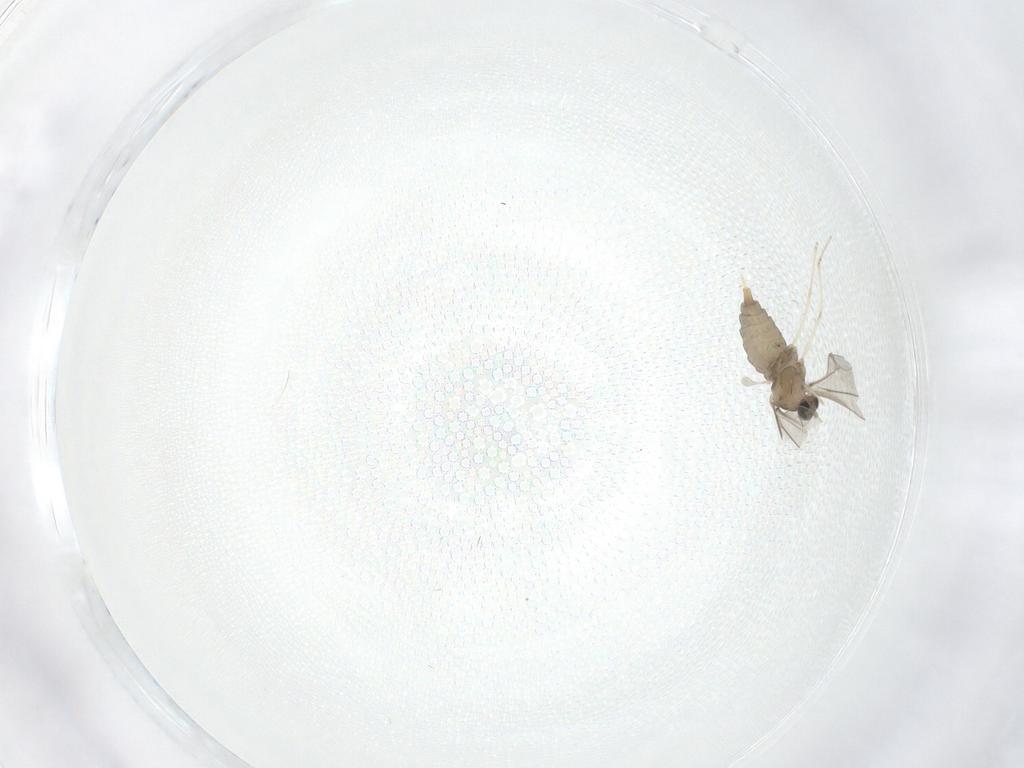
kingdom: Animalia
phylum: Arthropoda
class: Insecta
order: Diptera
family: Cecidomyiidae
